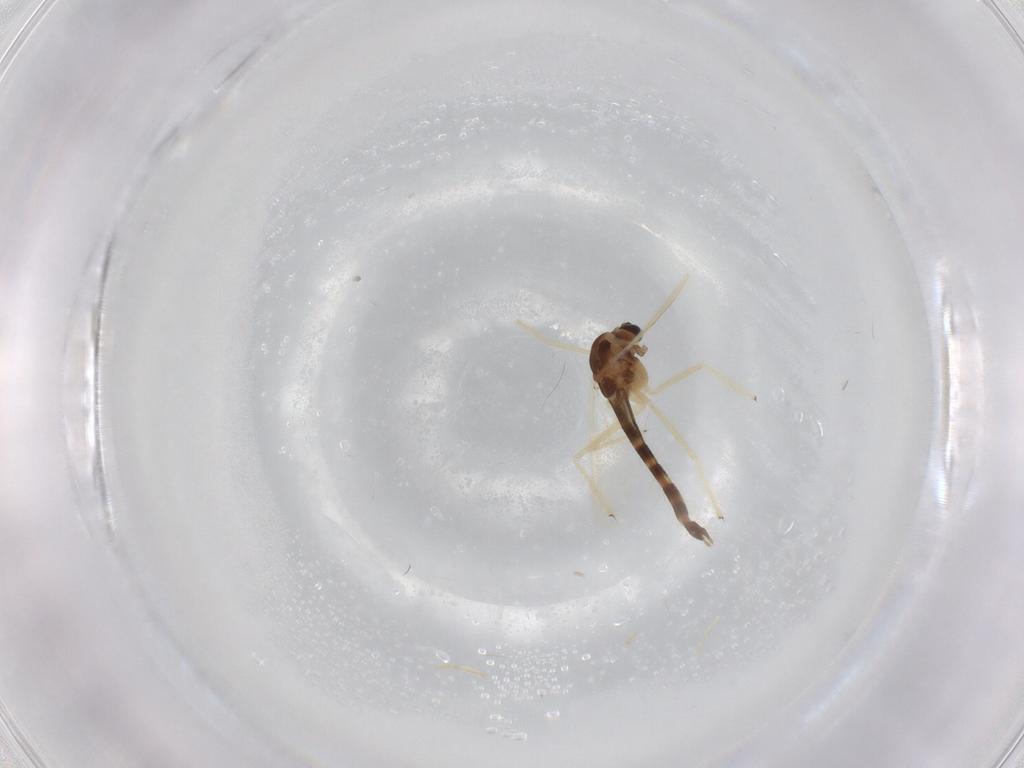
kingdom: Animalia
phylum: Arthropoda
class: Insecta
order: Diptera
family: Chironomidae
